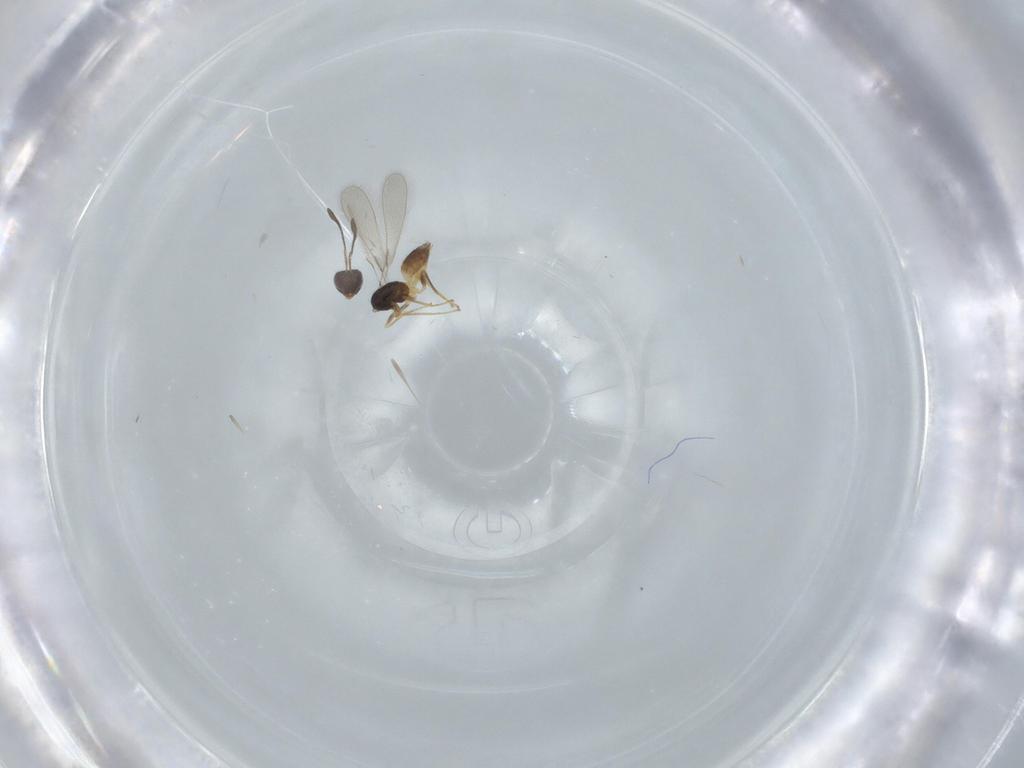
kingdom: Animalia
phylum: Arthropoda
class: Insecta
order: Hymenoptera
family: Mymaridae
